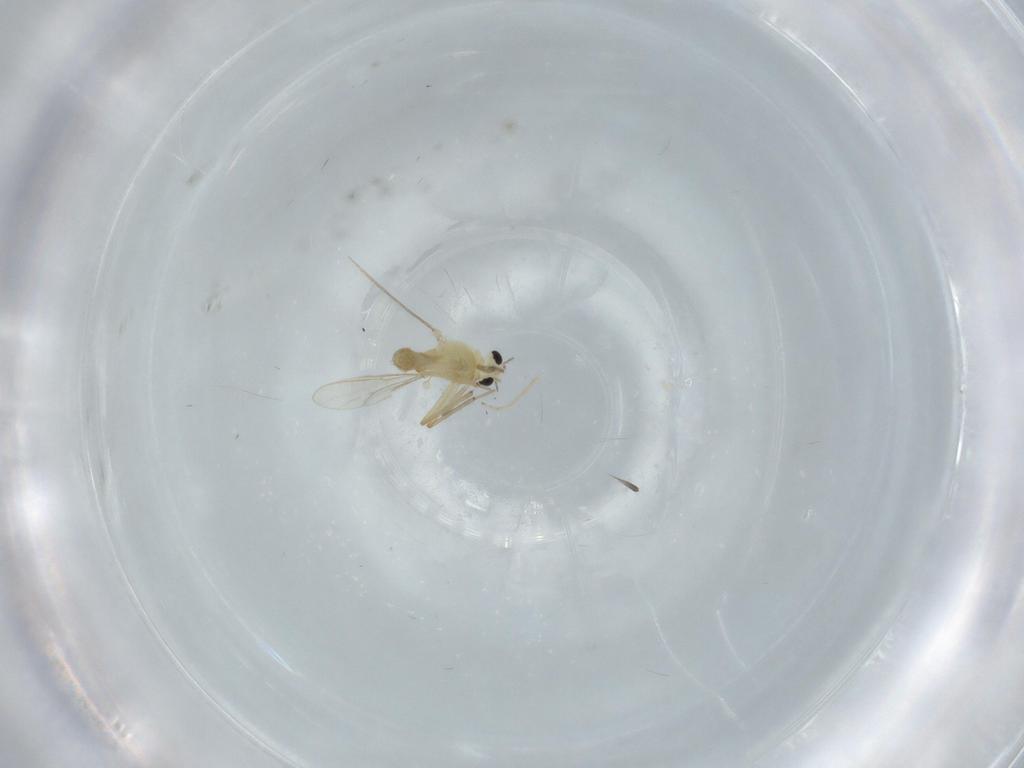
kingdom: Animalia
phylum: Arthropoda
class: Insecta
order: Diptera
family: Chironomidae
